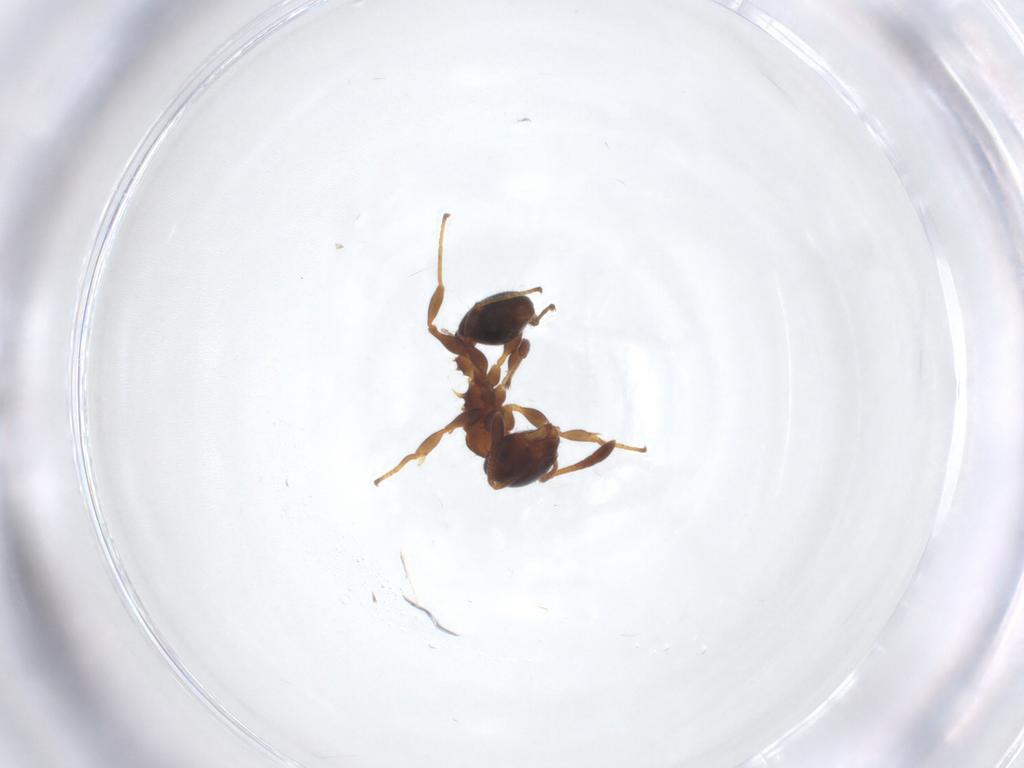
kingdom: Animalia
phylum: Arthropoda
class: Insecta
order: Hymenoptera
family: Formicidae
